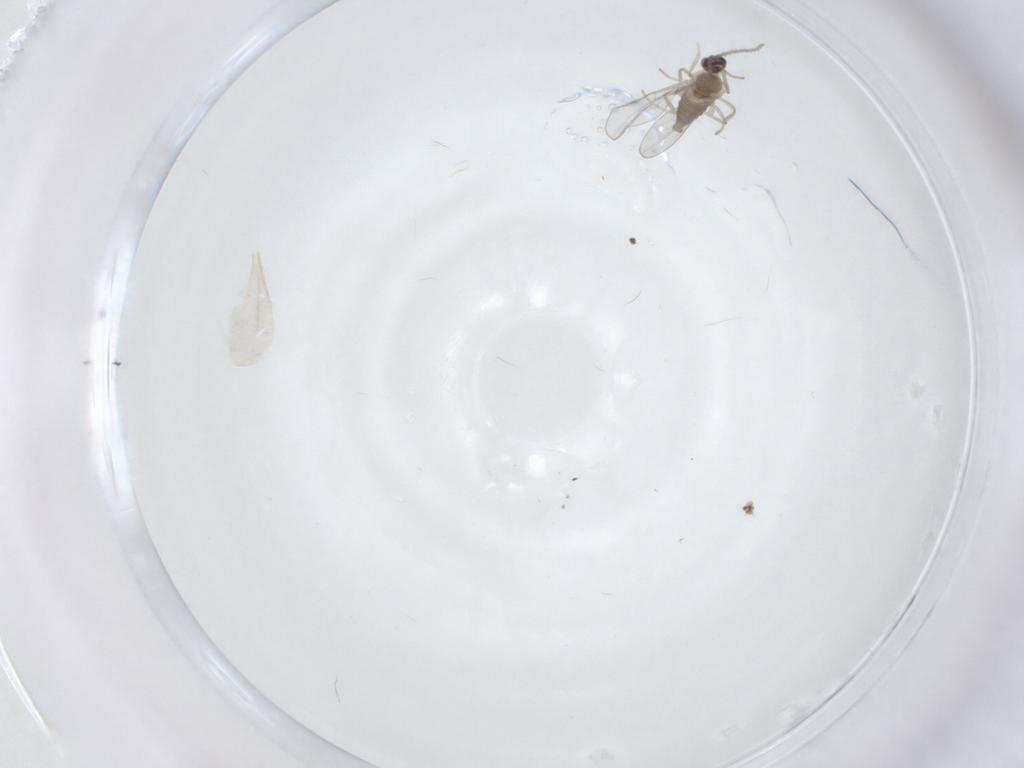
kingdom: Animalia
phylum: Arthropoda
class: Insecta
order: Diptera
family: Cecidomyiidae
